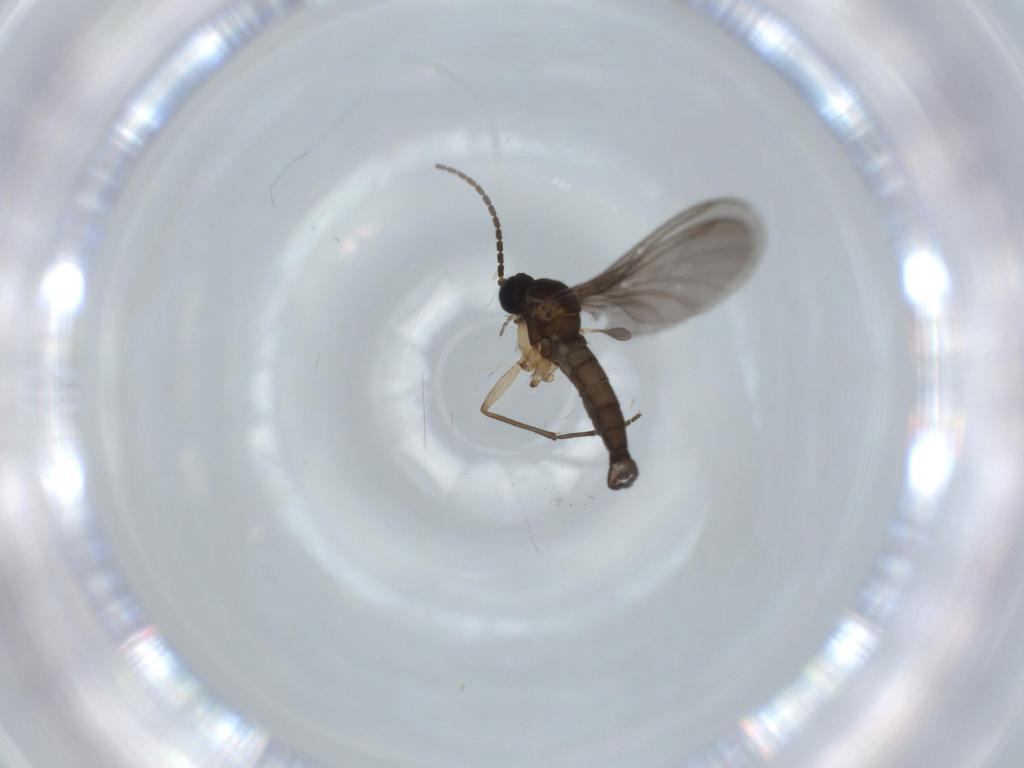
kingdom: Animalia
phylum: Arthropoda
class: Insecta
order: Diptera
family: Sciaridae
